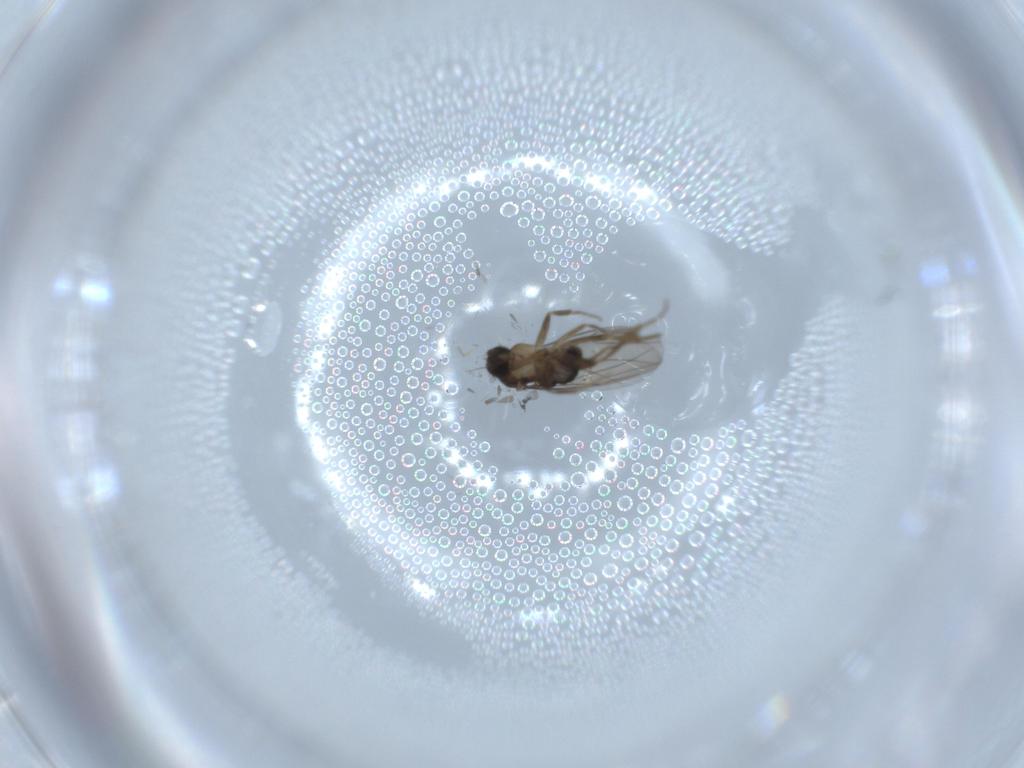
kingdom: Animalia
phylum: Arthropoda
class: Insecta
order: Diptera
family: Phoridae
